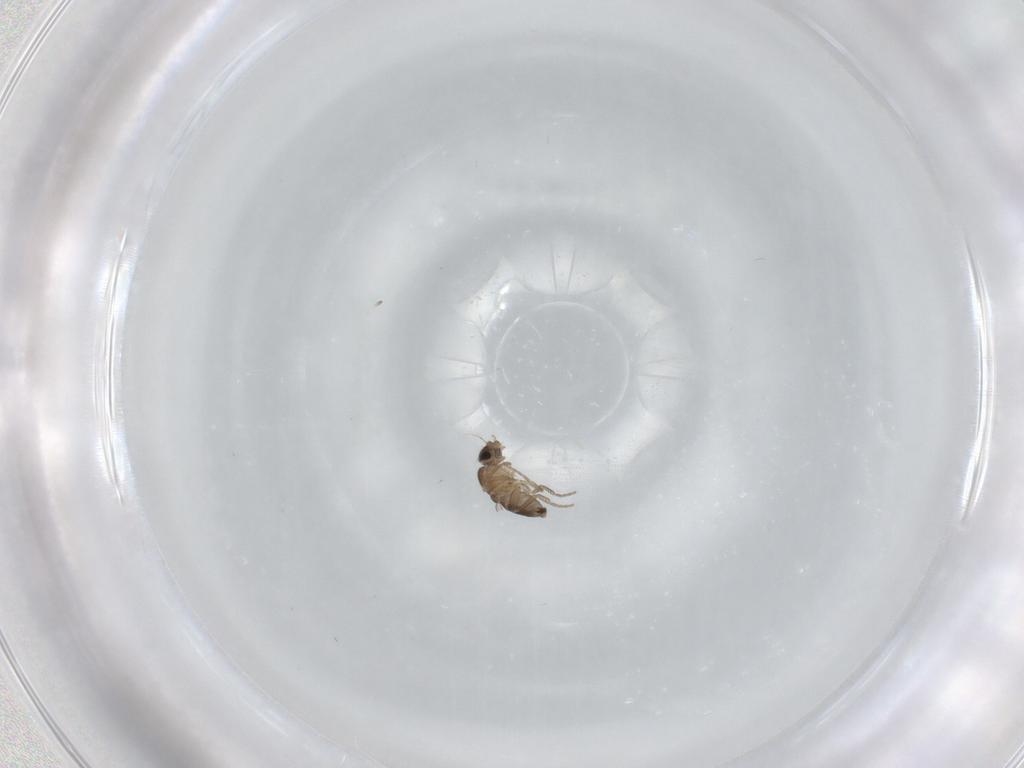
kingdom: Animalia
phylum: Arthropoda
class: Insecta
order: Diptera
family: Phoridae
